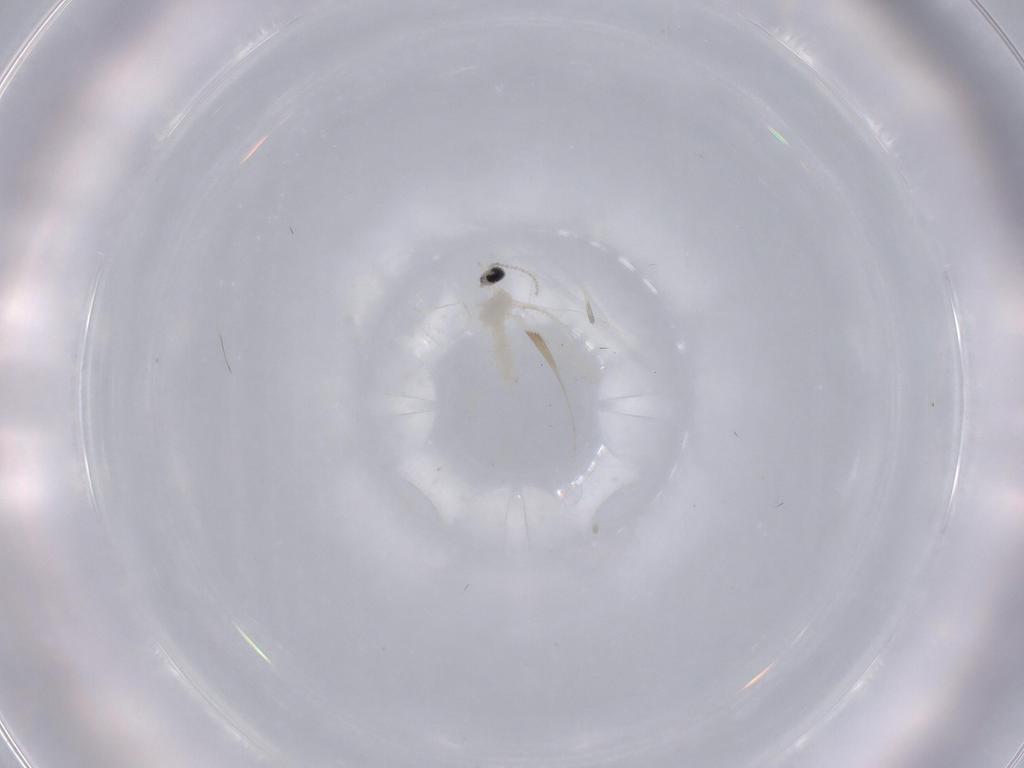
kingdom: Animalia
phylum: Arthropoda
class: Insecta
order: Diptera
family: Cecidomyiidae
